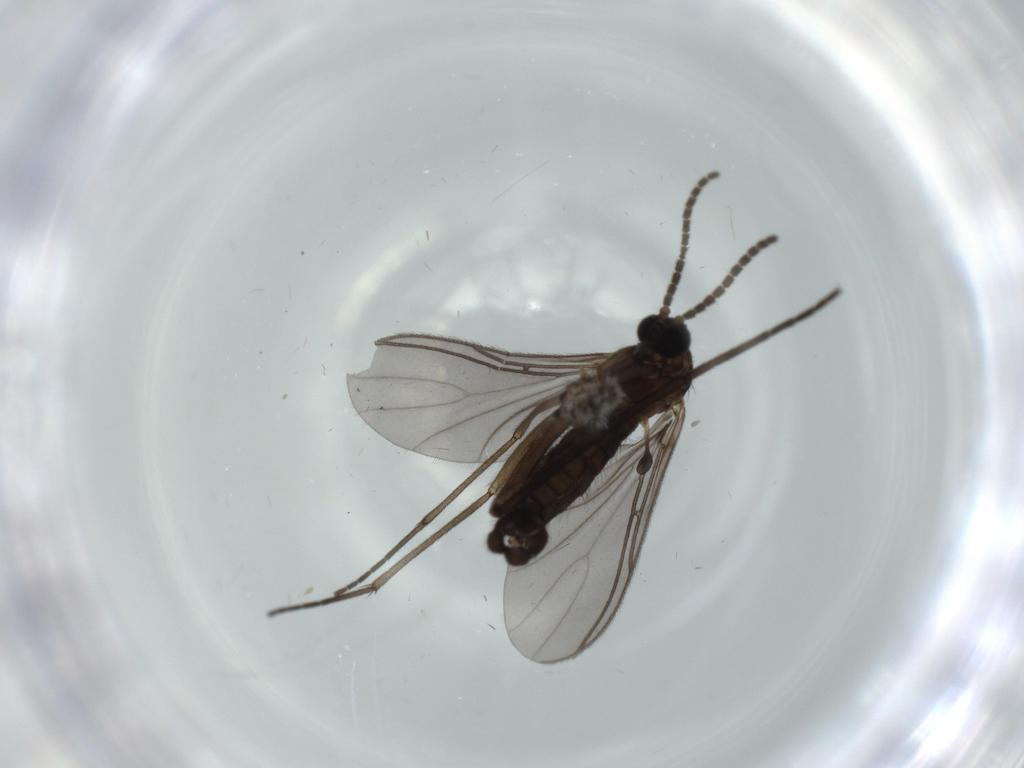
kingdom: Animalia
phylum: Arthropoda
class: Insecta
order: Diptera
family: Sciaridae
